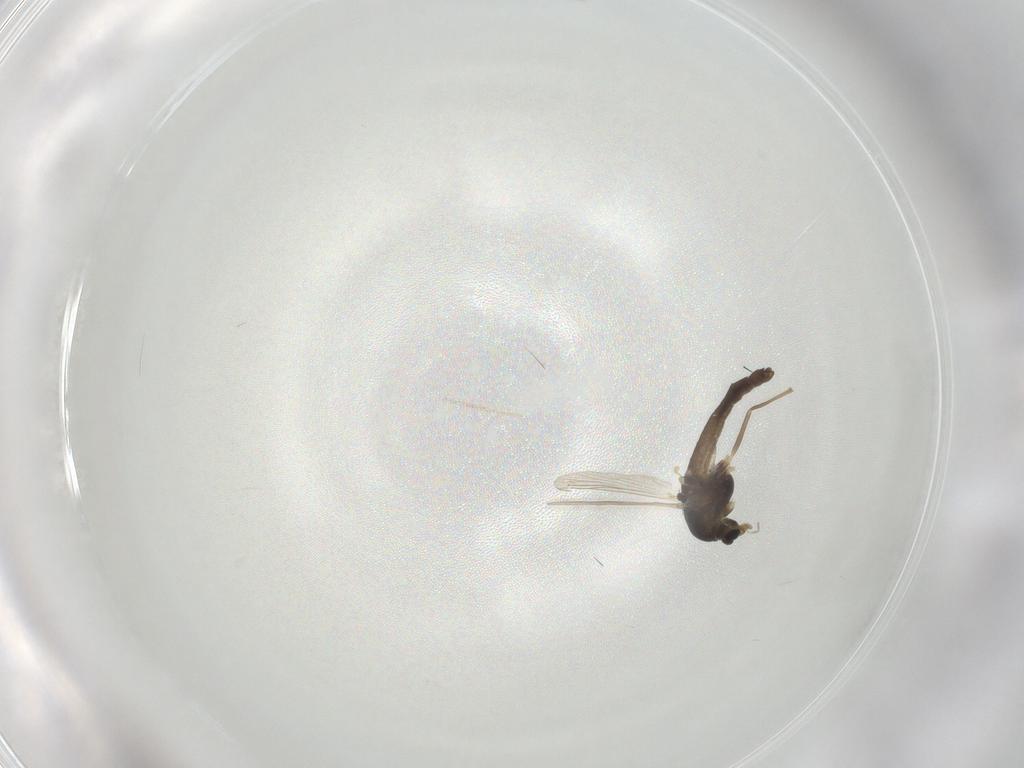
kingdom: Animalia
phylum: Arthropoda
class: Insecta
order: Diptera
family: Chironomidae
